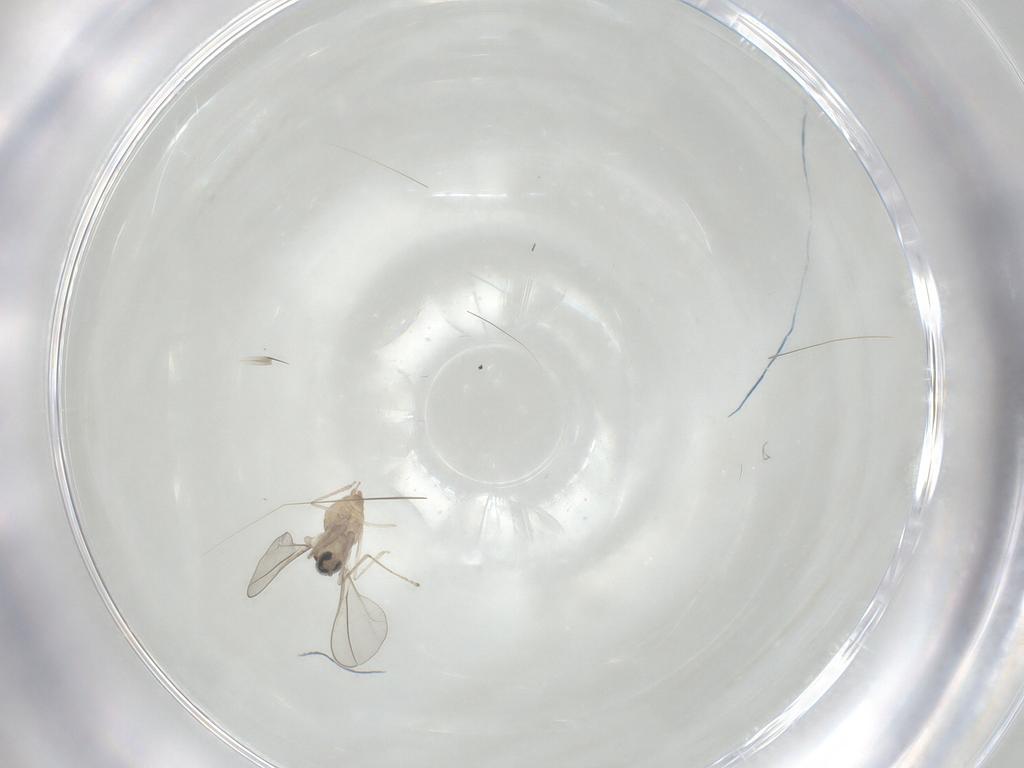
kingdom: Animalia
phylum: Arthropoda
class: Insecta
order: Diptera
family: Cecidomyiidae
